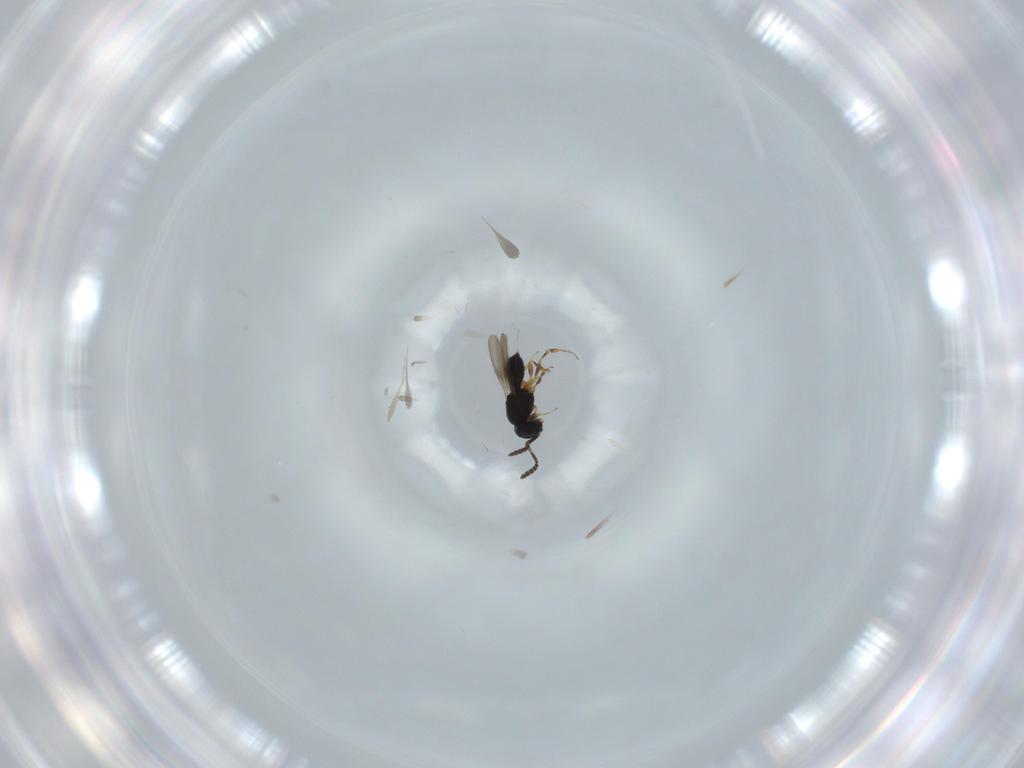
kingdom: Animalia
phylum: Arthropoda
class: Insecta
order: Hymenoptera
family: Scelionidae
